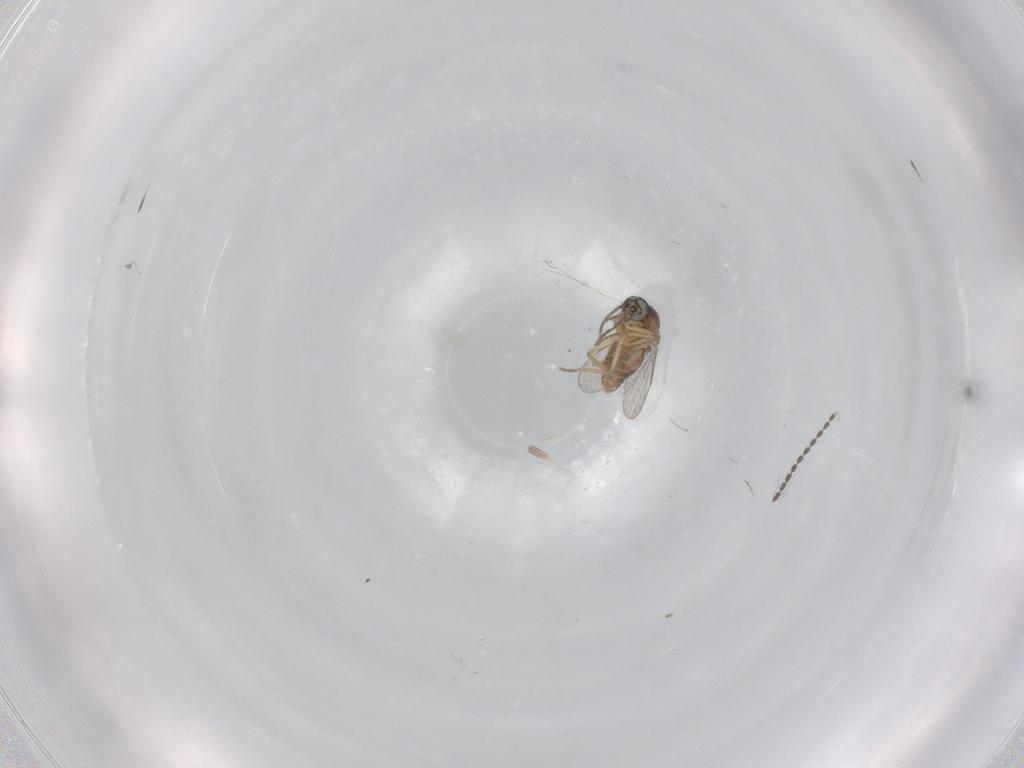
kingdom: Animalia
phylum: Arthropoda
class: Insecta
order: Diptera
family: Ceratopogonidae
